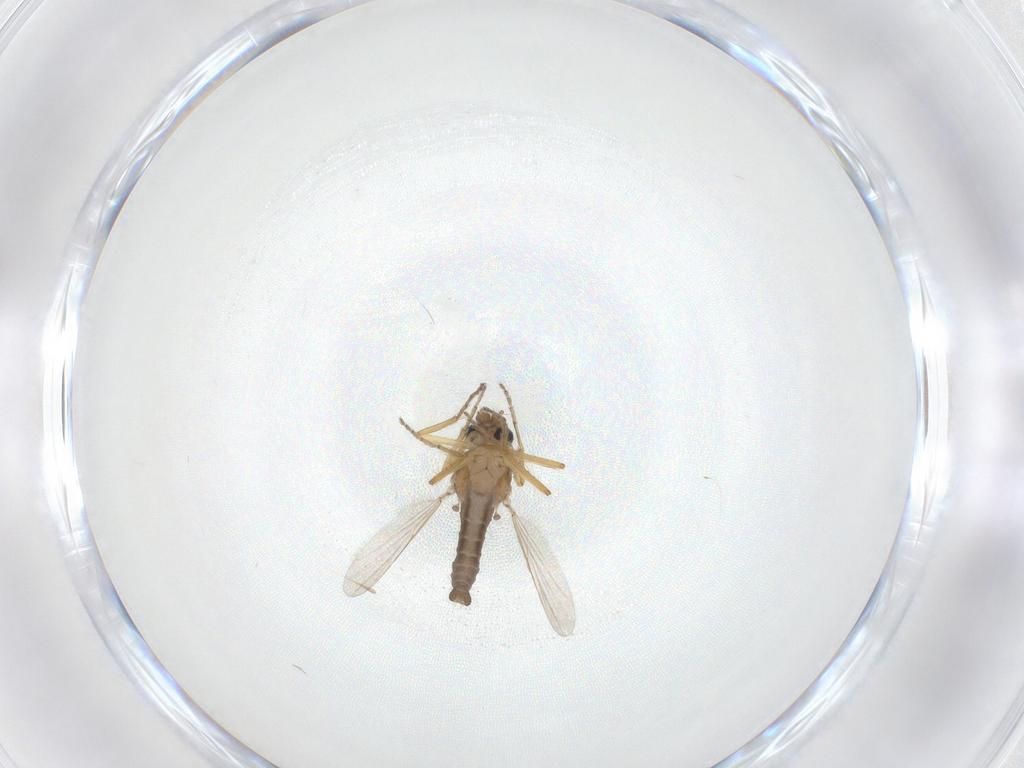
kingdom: Animalia
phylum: Arthropoda
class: Insecta
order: Diptera
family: Ceratopogonidae
